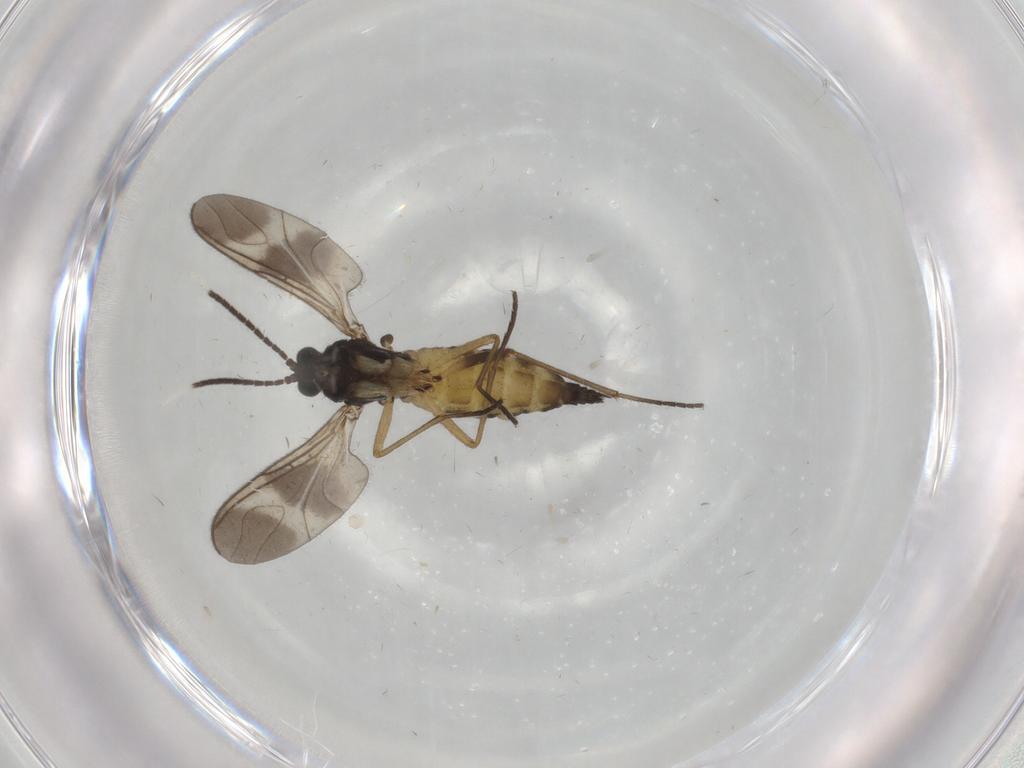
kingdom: Animalia
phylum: Arthropoda
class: Insecta
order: Diptera
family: Sciaridae
